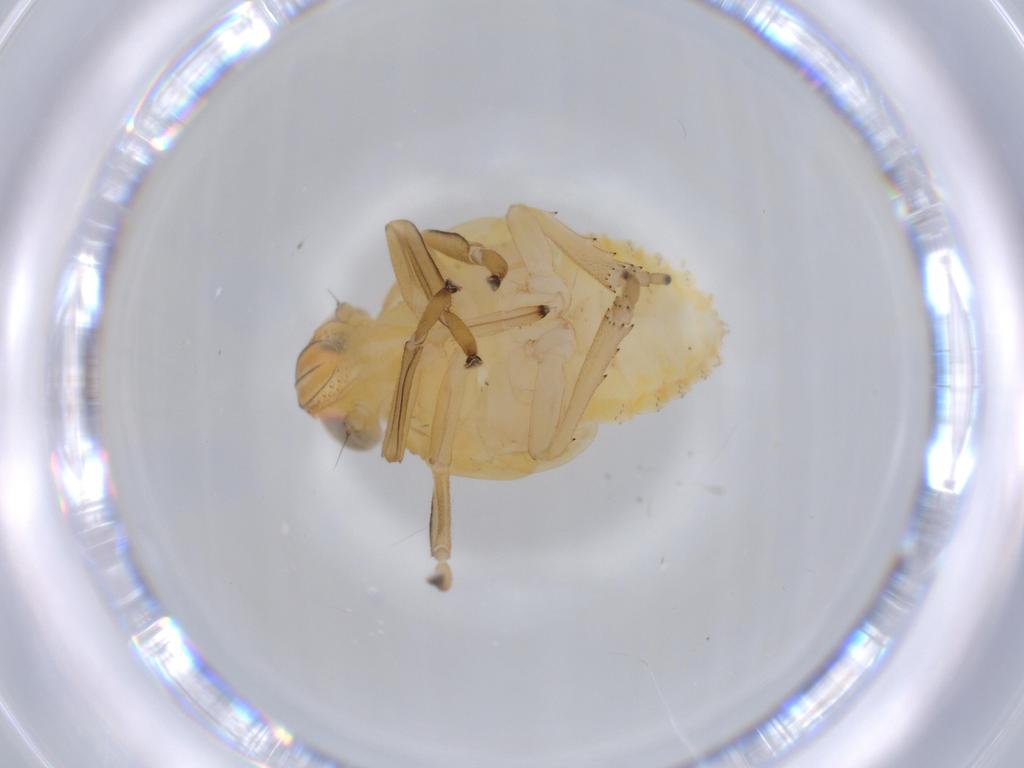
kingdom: Animalia
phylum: Arthropoda
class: Insecta
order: Hemiptera
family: Issidae
